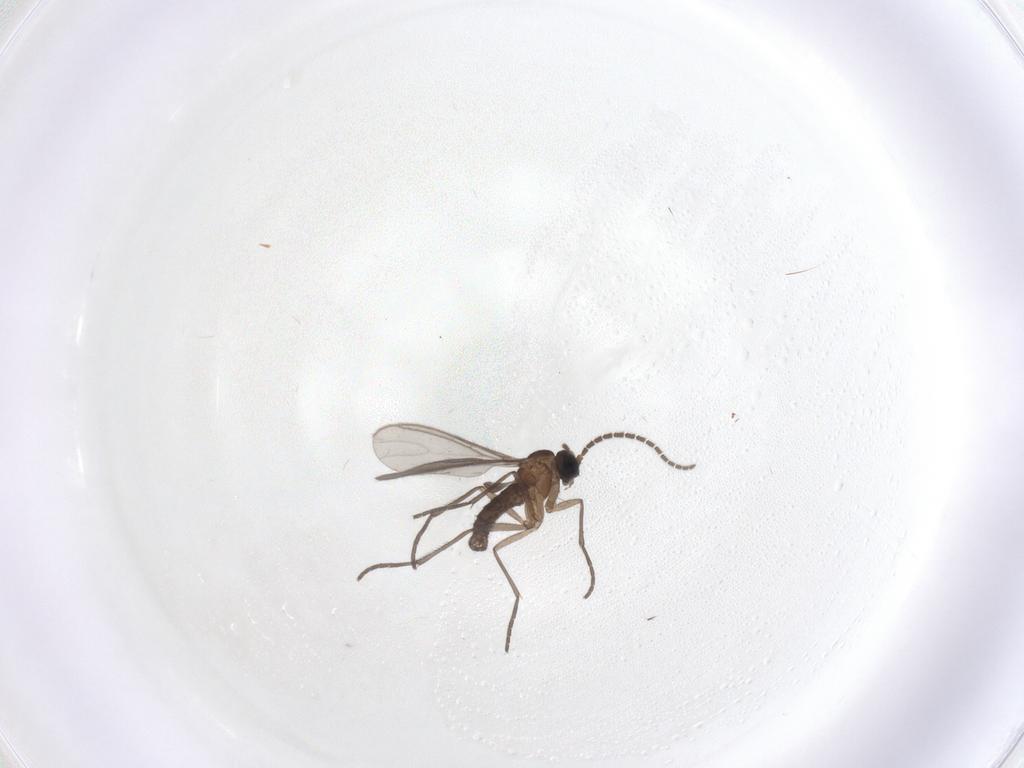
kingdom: Animalia
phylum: Arthropoda
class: Insecta
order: Diptera
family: Sciaridae
